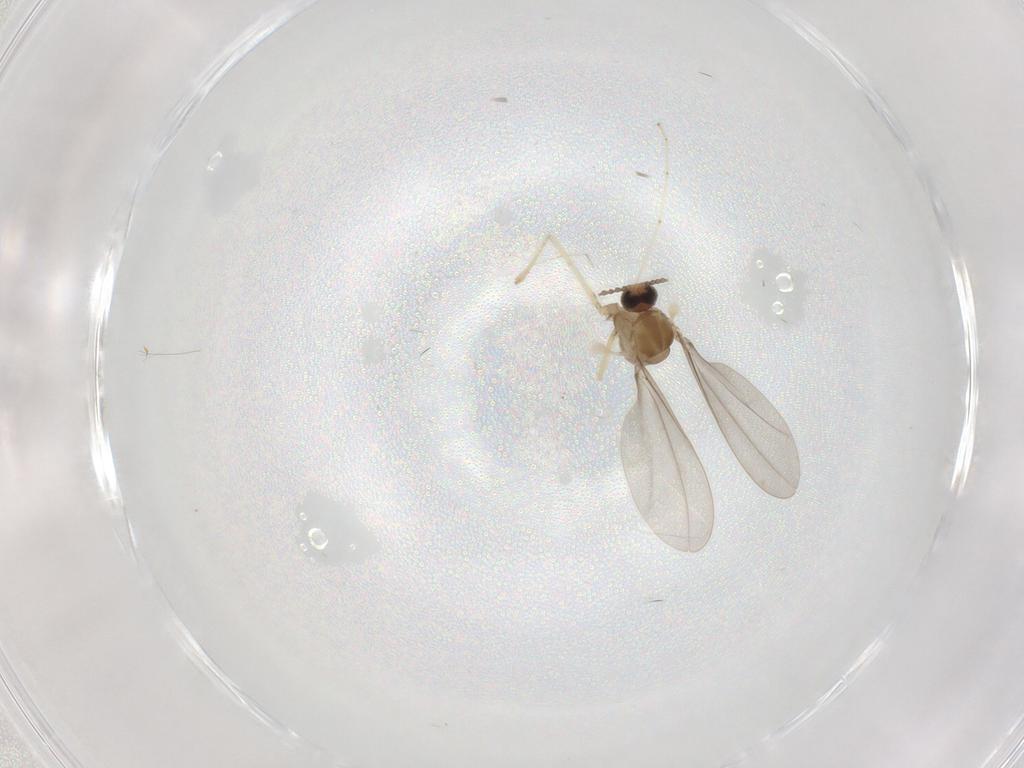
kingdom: Animalia
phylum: Arthropoda
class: Insecta
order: Diptera
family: Cecidomyiidae
